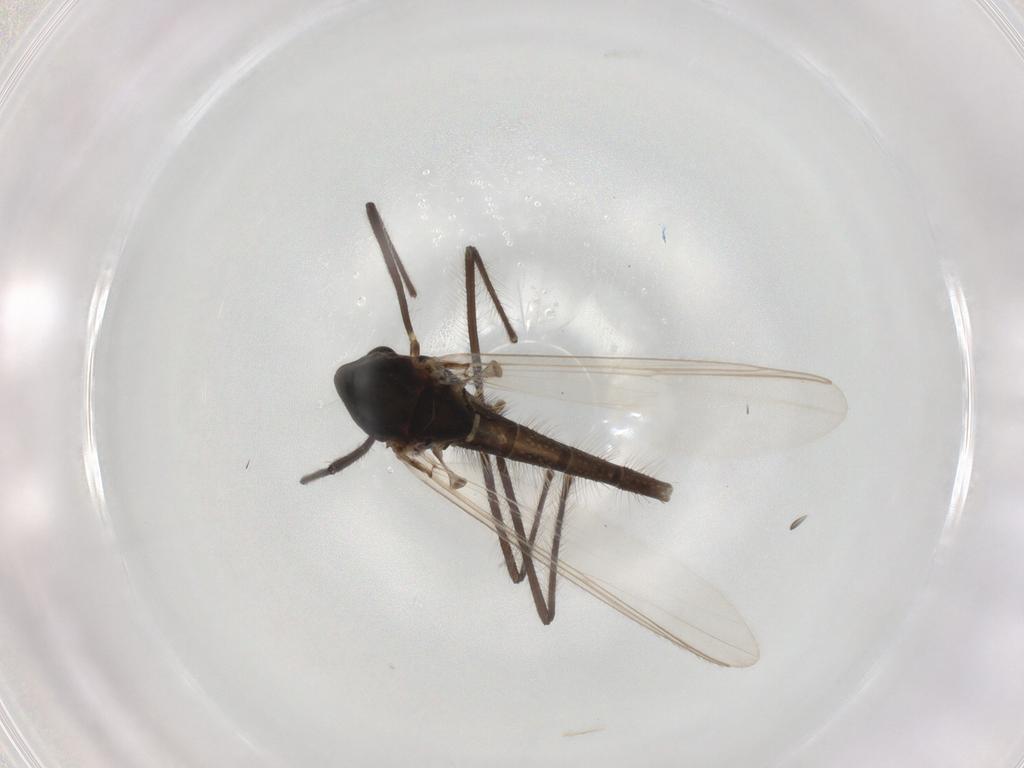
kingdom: Animalia
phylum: Arthropoda
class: Insecta
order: Diptera
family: Chironomidae
